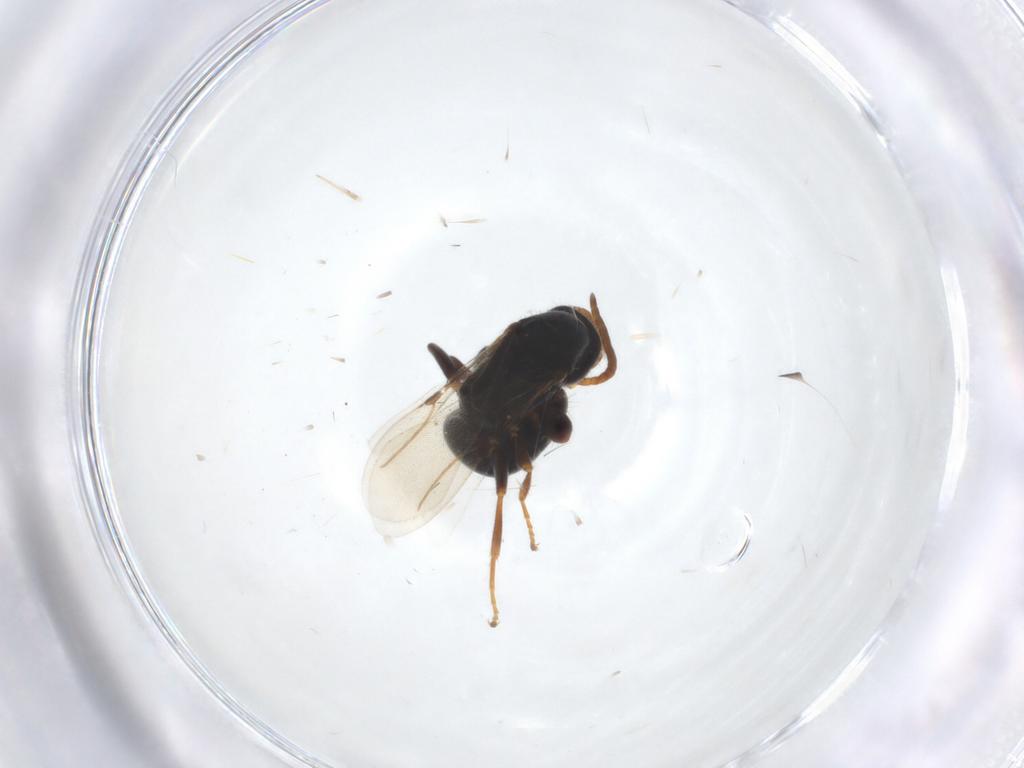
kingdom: Animalia
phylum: Arthropoda
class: Insecta
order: Hymenoptera
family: Bethylidae
